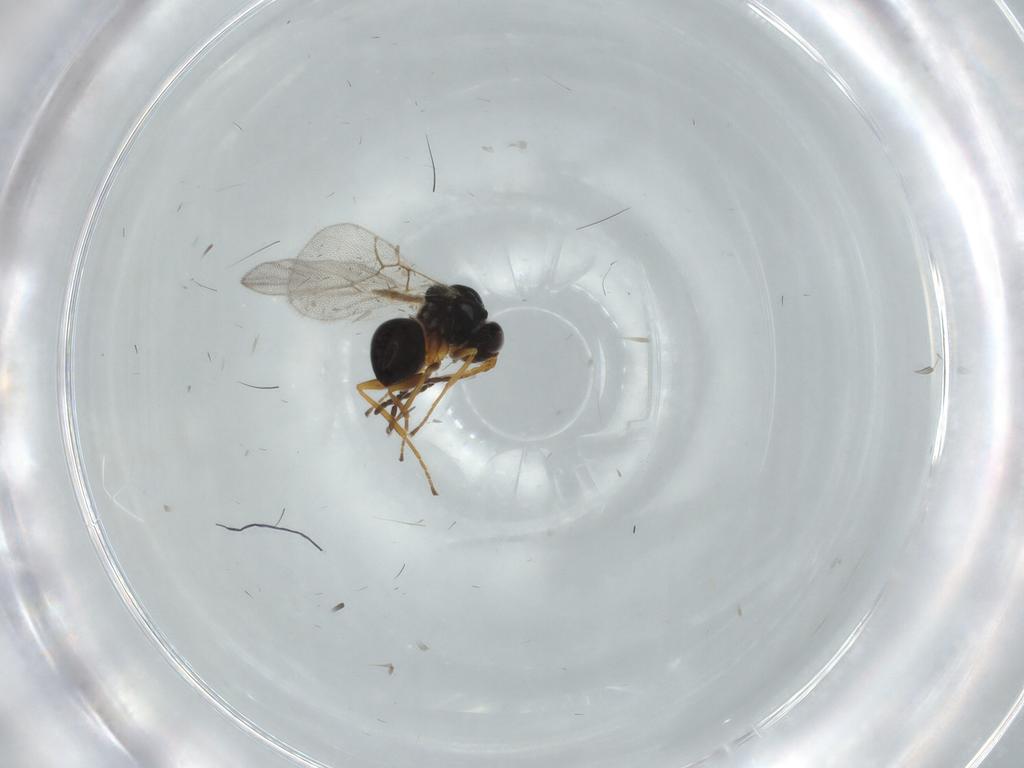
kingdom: Animalia
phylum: Arthropoda
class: Insecta
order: Hymenoptera
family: Figitidae
